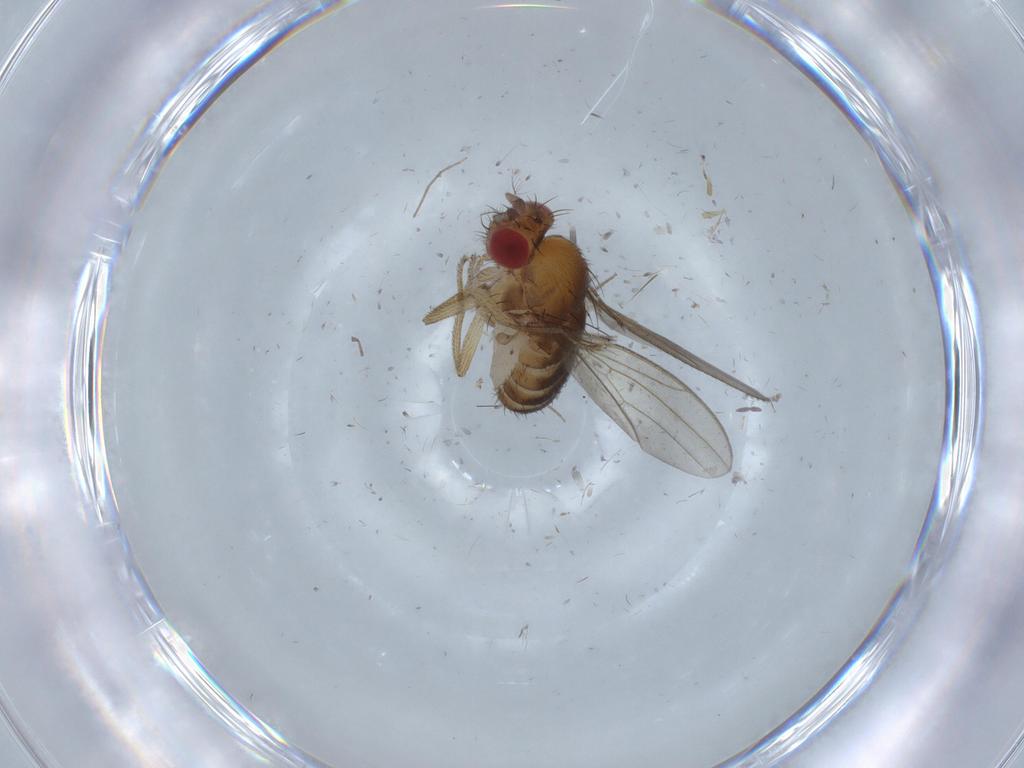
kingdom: Animalia
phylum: Arthropoda
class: Insecta
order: Diptera
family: Drosophilidae
